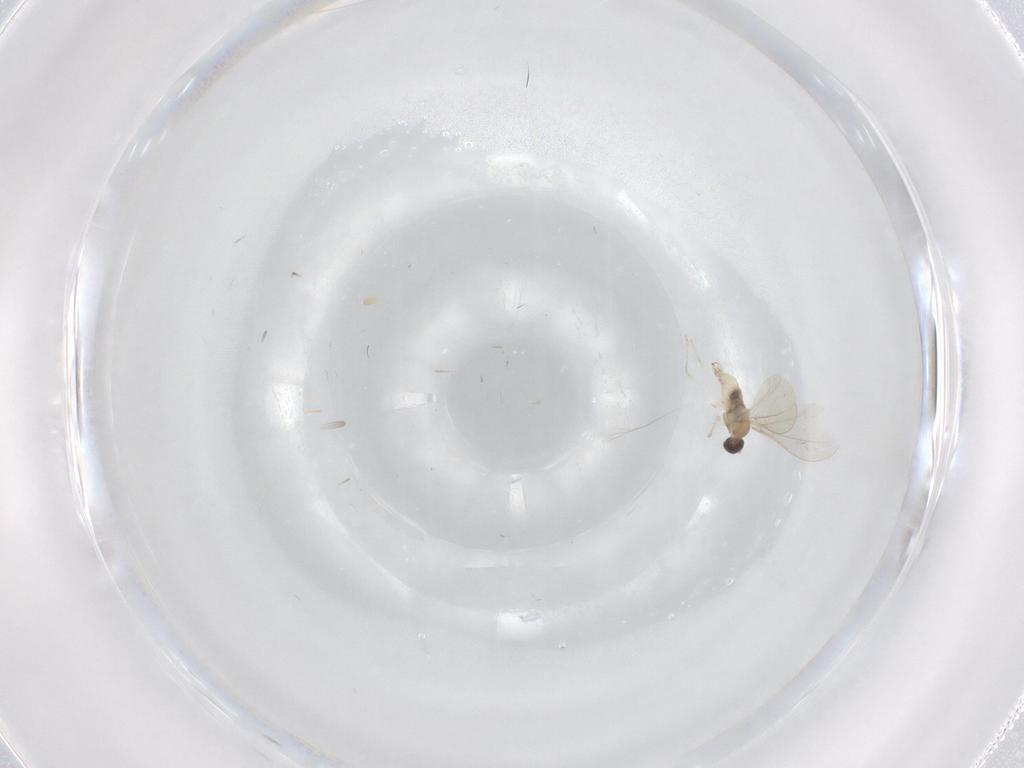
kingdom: Animalia
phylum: Arthropoda
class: Insecta
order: Diptera
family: Cecidomyiidae
